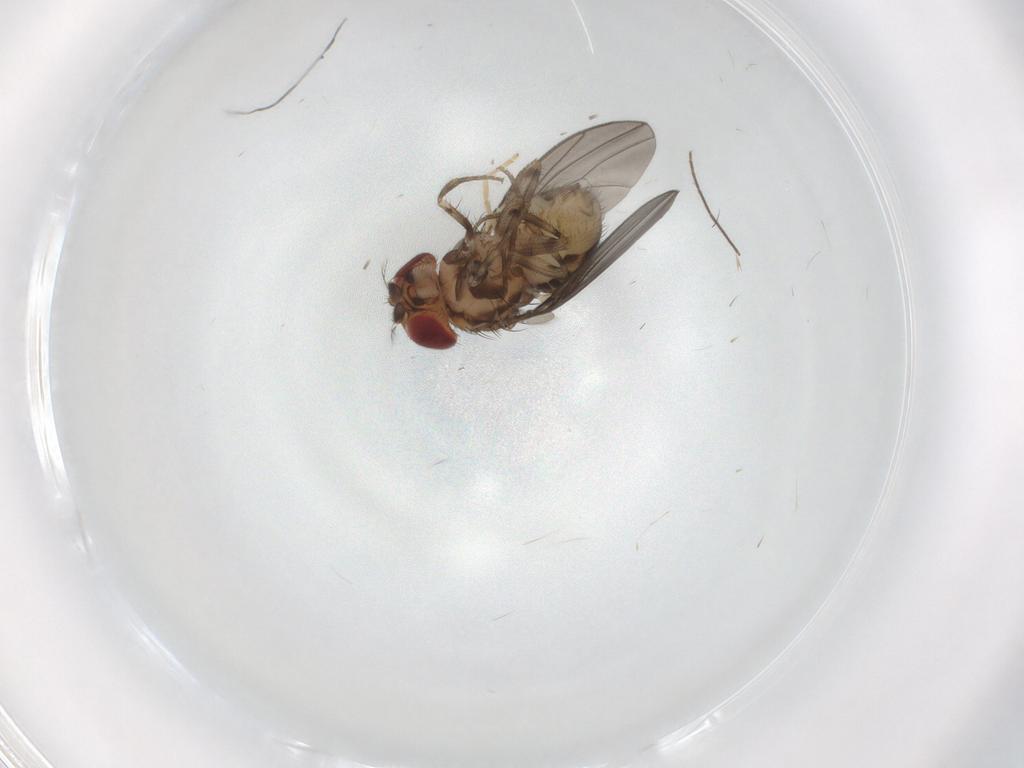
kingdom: Animalia
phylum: Arthropoda
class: Insecta
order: Diptera
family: Drosophilidae
